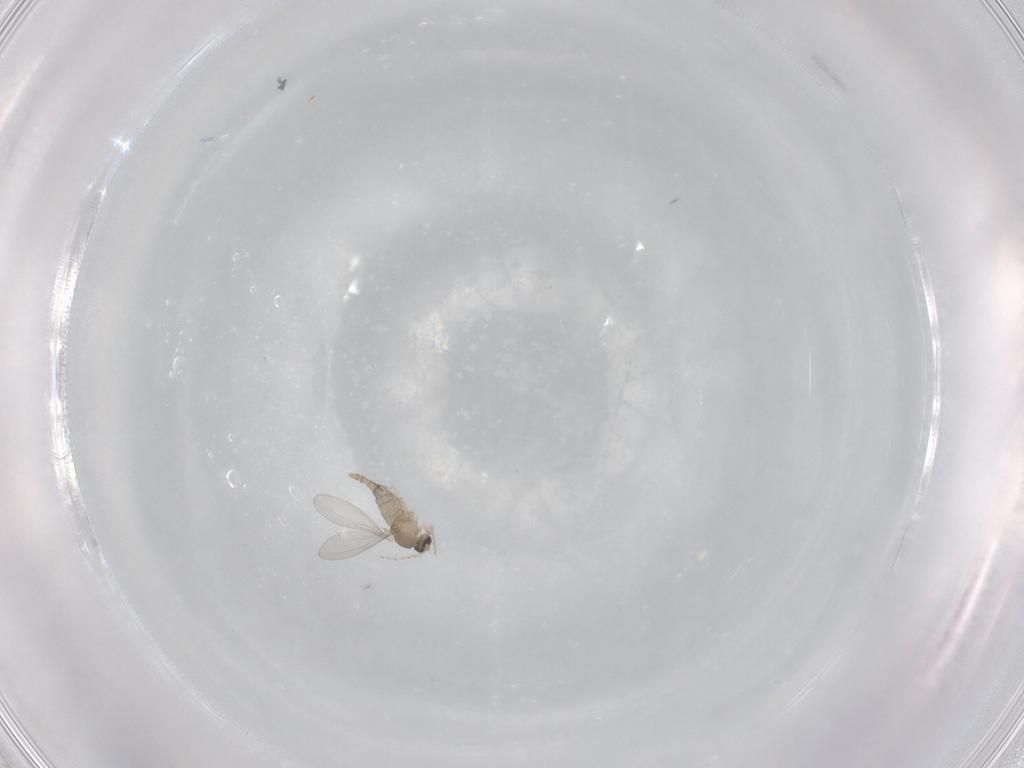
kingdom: Animalia
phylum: Arthropoda
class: Insecta
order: Diptera
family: Cecidomyiidae
